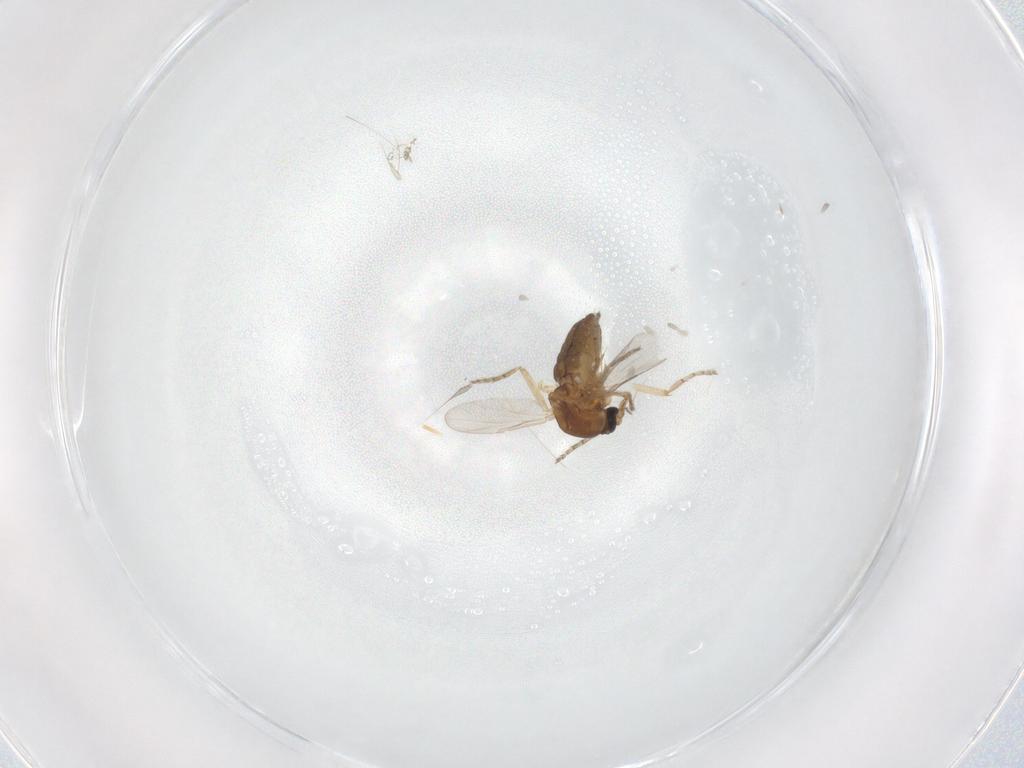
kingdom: Animalia
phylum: Arthropoda
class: Insecta
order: Diptera
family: Ceratopogonidae
